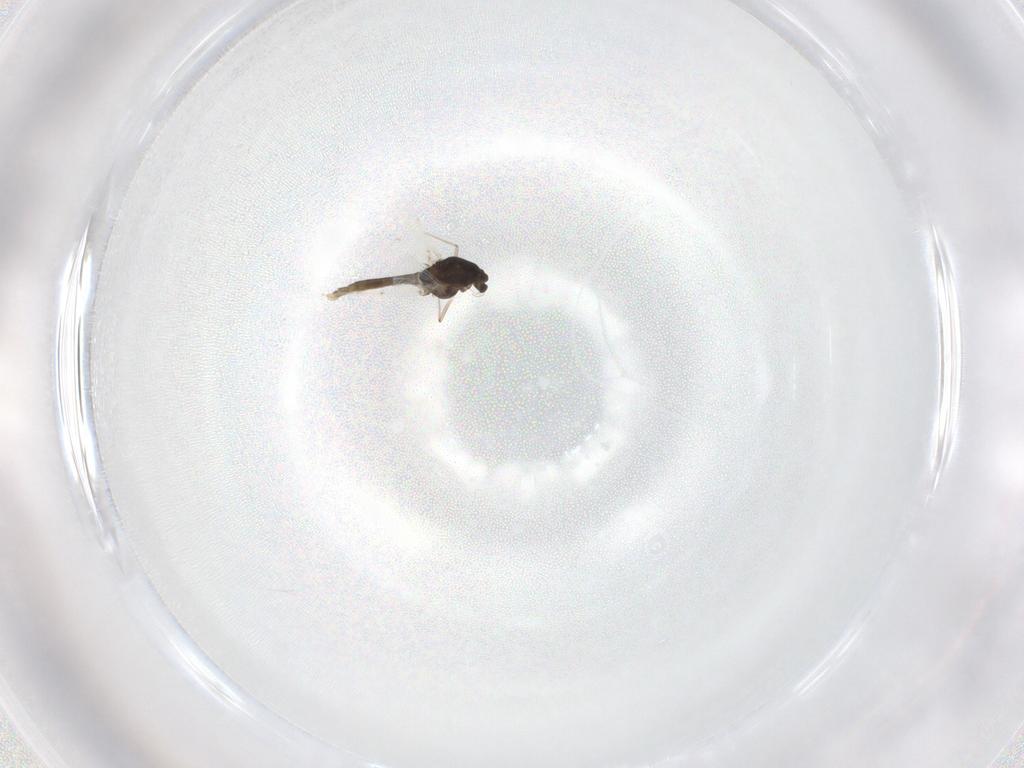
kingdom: Animalia
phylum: Arthropoda
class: Insecta
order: Diptera
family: Chironomidae
